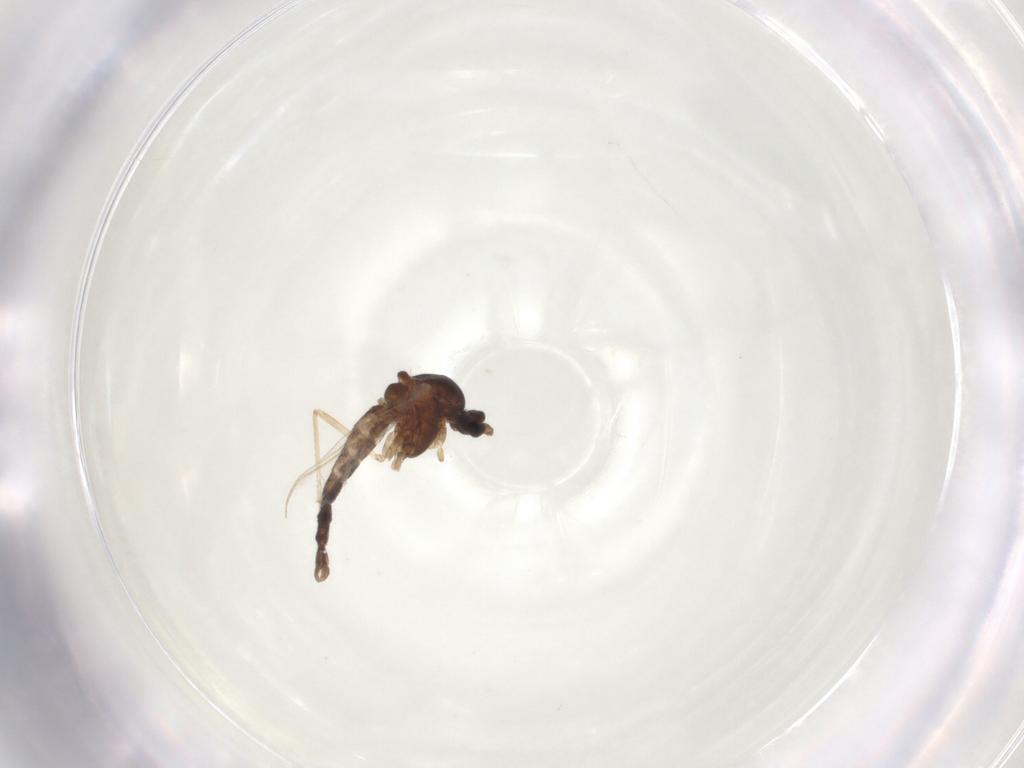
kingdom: Animalia
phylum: Arthropoda
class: Insecta
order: Diptera
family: Chironomidae
